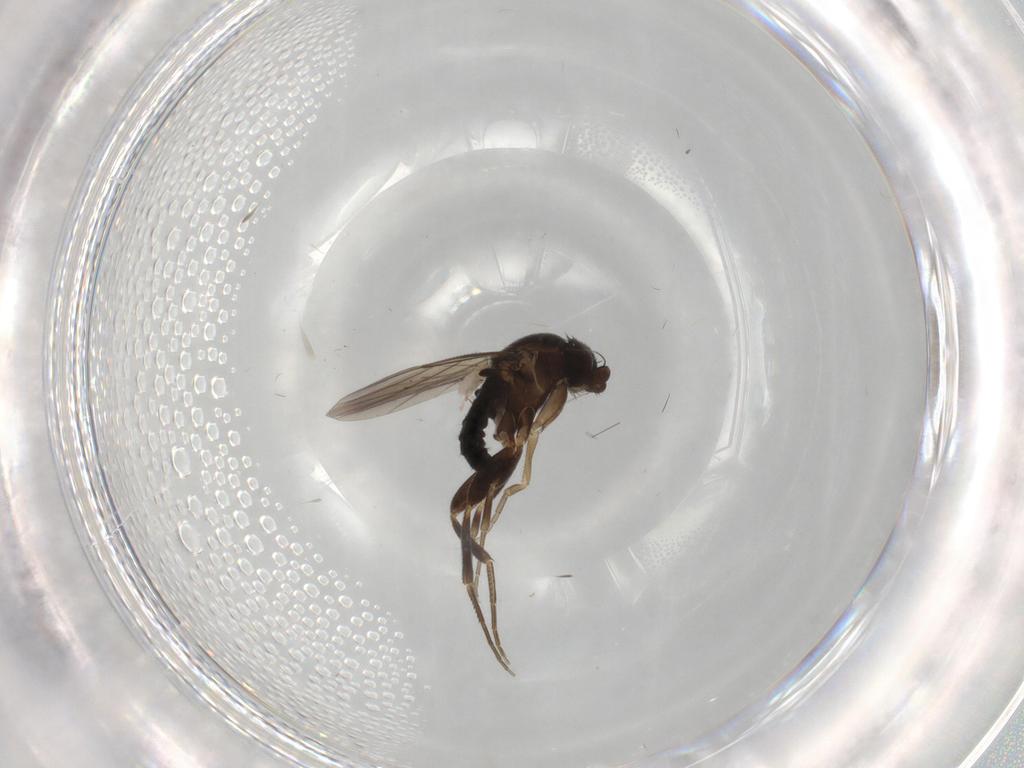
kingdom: Animalia
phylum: Arthropoda
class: Insecta
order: Diptera
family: Phoridae
